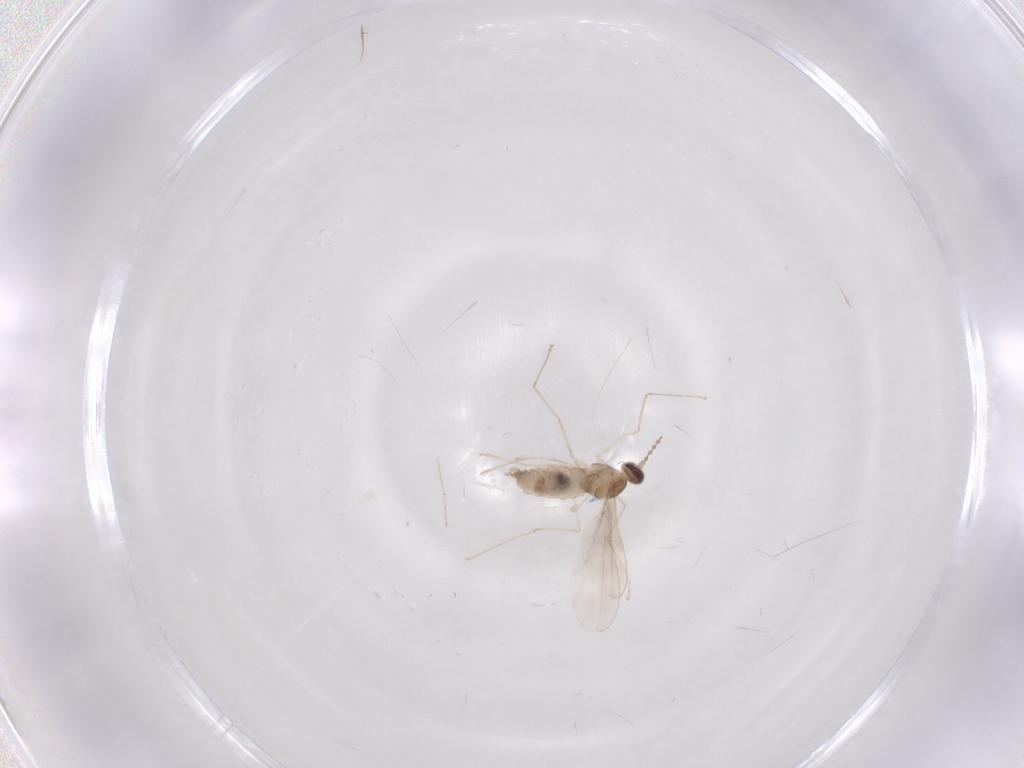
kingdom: Animalia
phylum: Arthropoda
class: Insecta
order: Diptera
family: Cecidomyiidae
